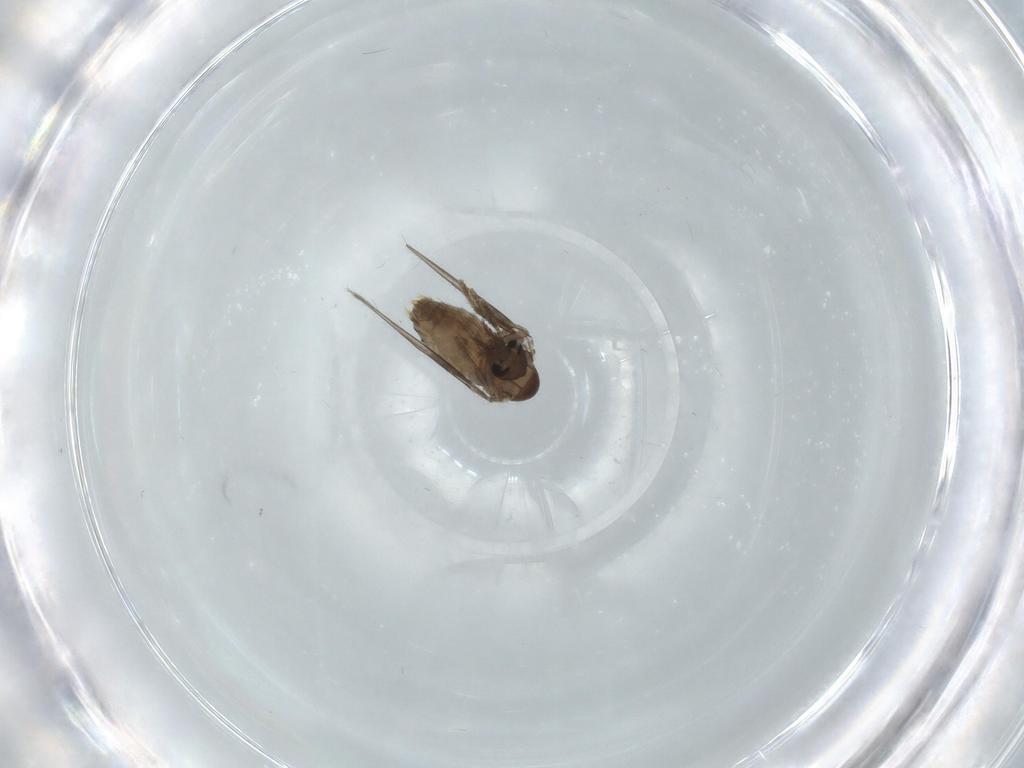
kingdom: Animalia
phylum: Arthropoda
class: Insecta
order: Diptera
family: Psychodidae
